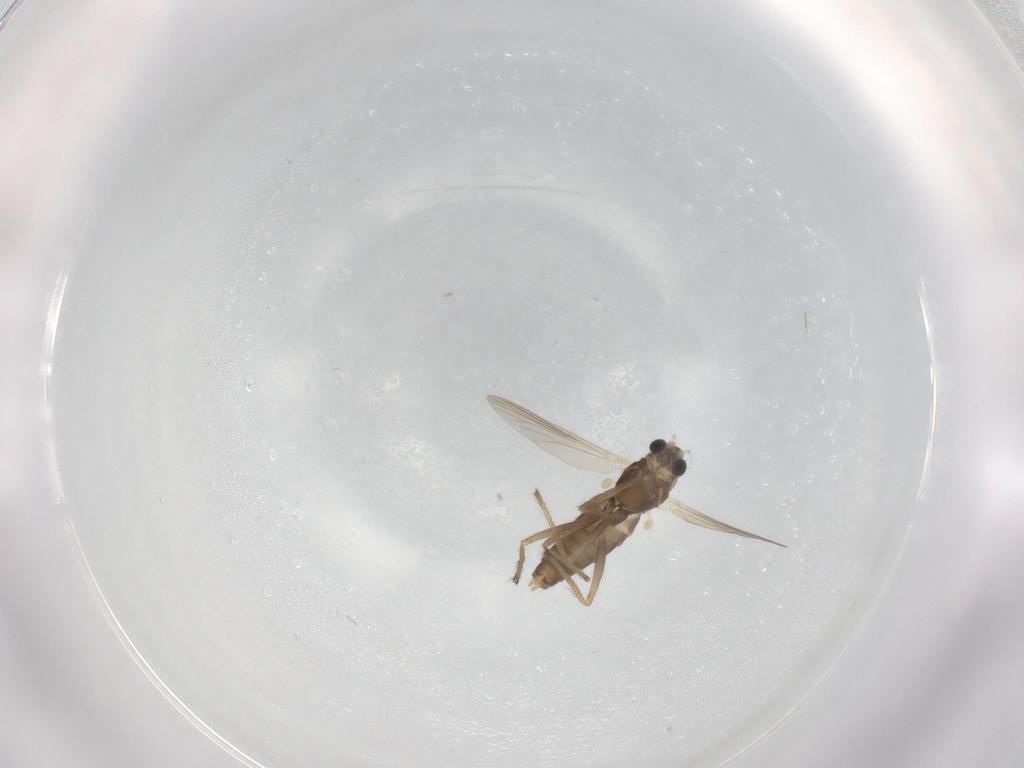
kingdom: Animalia
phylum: Arthropoda
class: Insecta
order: Diptera
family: Chironomidae
